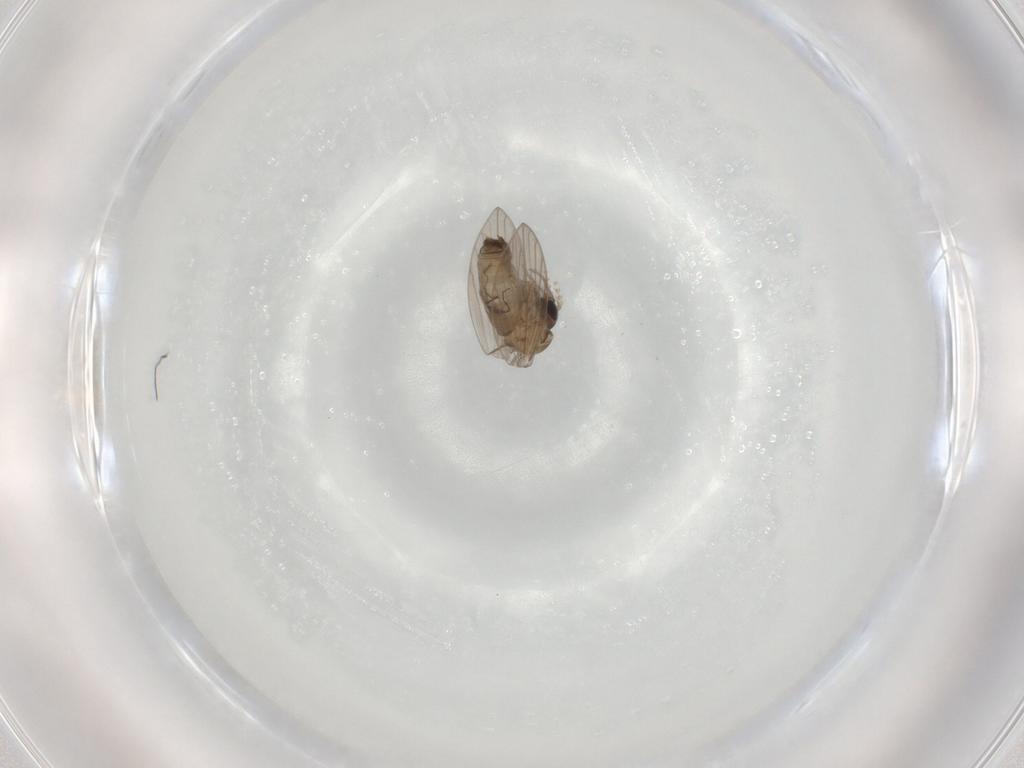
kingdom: Animalia
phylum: Arthropoda
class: Insecta
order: Diptera
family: Psychodidae
